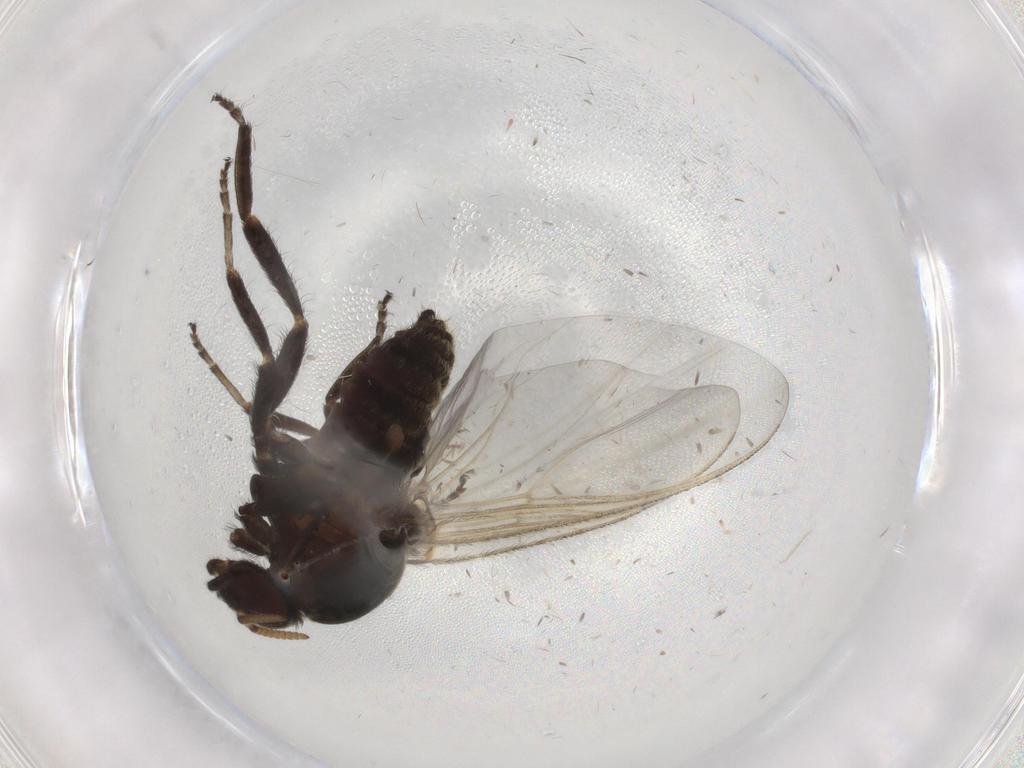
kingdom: Animalia
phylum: Arthropoda
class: Insecta
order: Diptera
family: Phoridae
